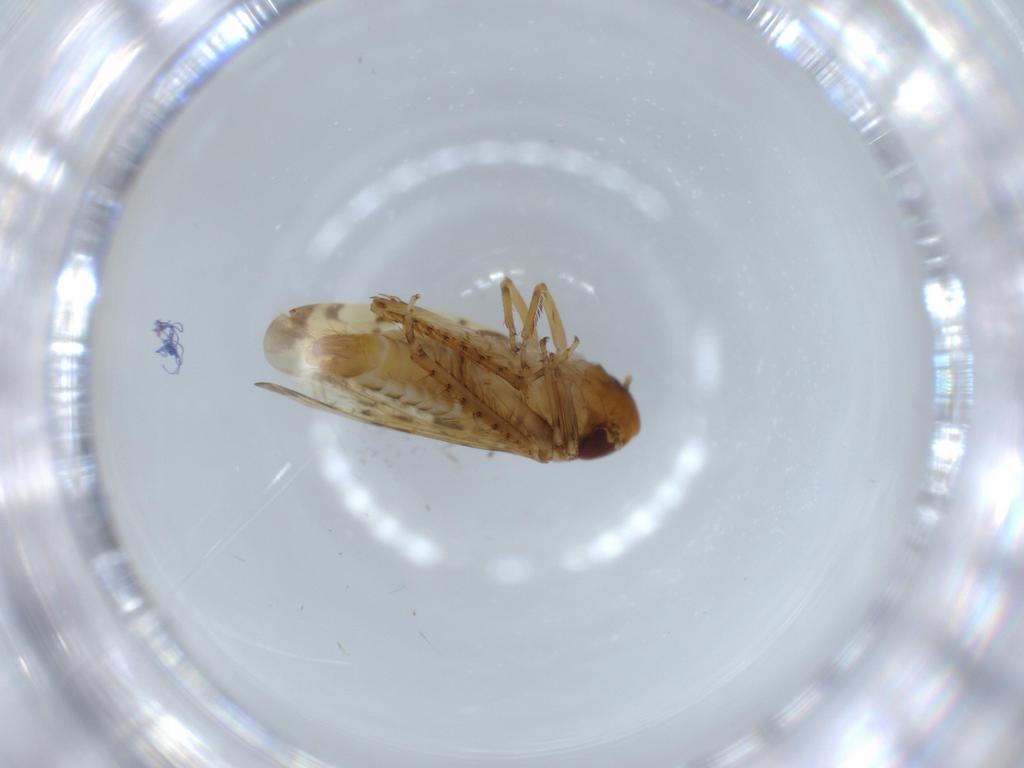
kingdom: Animalia
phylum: Arthropoda
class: Insecta
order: Hemiptera
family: Cicadellidae
